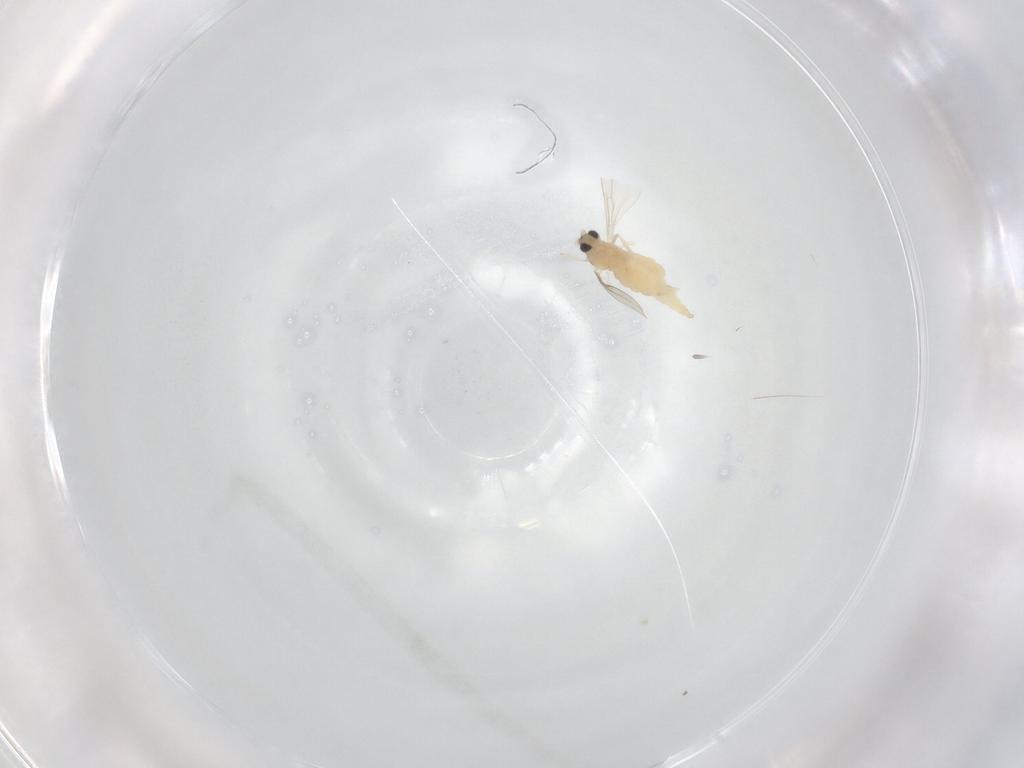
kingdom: Animalia
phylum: Arthropoda
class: Insecta
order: Diptera
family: Cecidomyiidae
